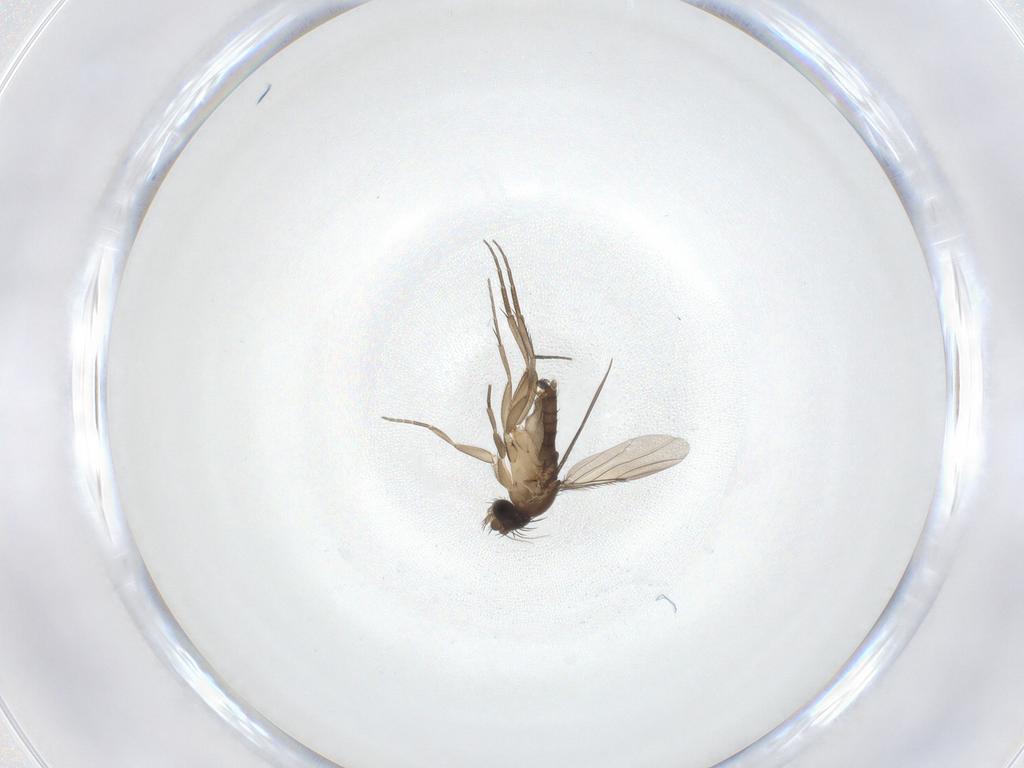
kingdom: Animalia
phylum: Arthropoda
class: Insecta
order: Diptera
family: Phoridae
